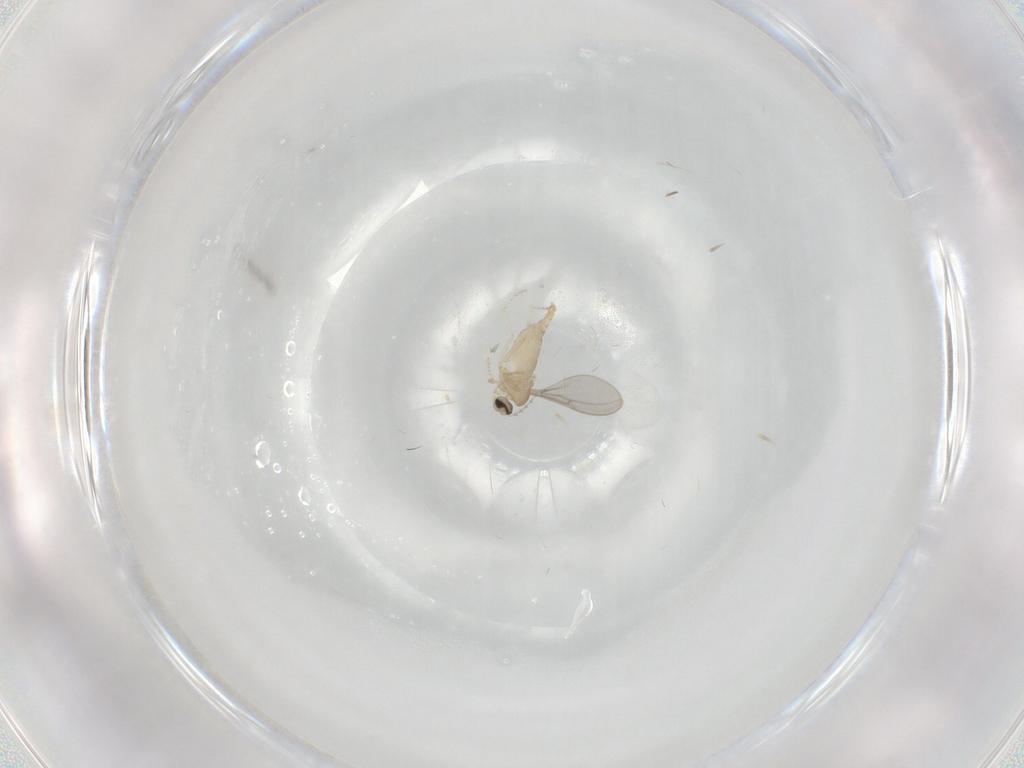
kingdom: Animalia
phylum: Arthropoda
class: Insecta
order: Diptera
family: Cecidomyiidae
